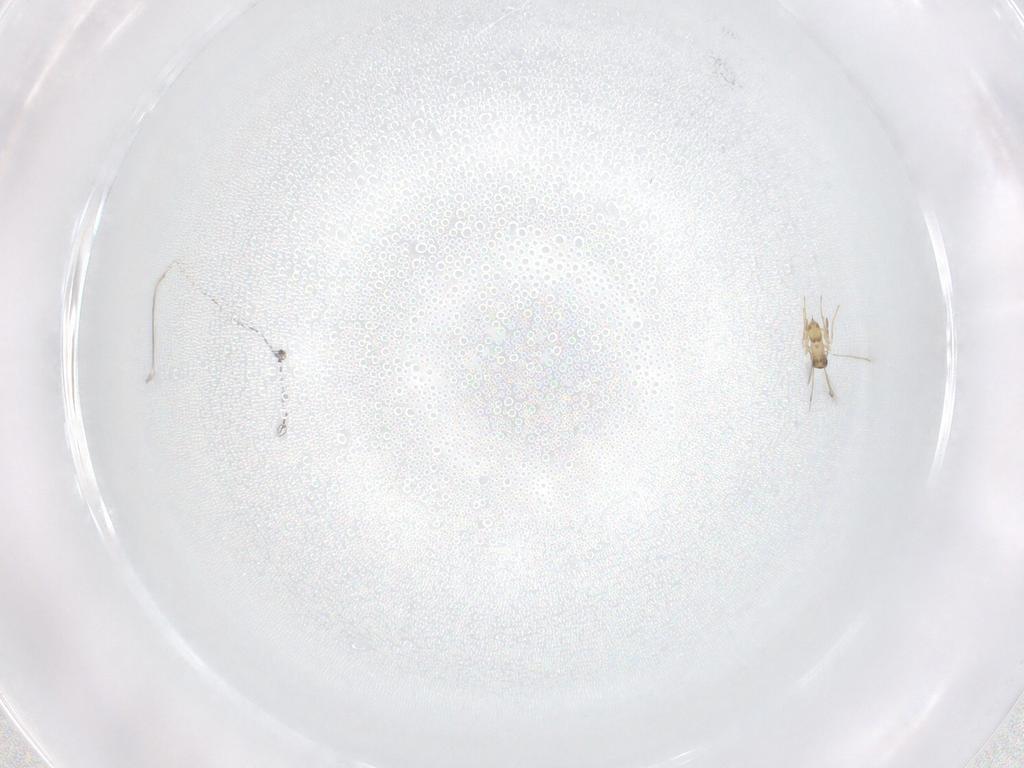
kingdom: Animalia
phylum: Arthropoda
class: Insecta
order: Hymenoptera
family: Mymaridae
